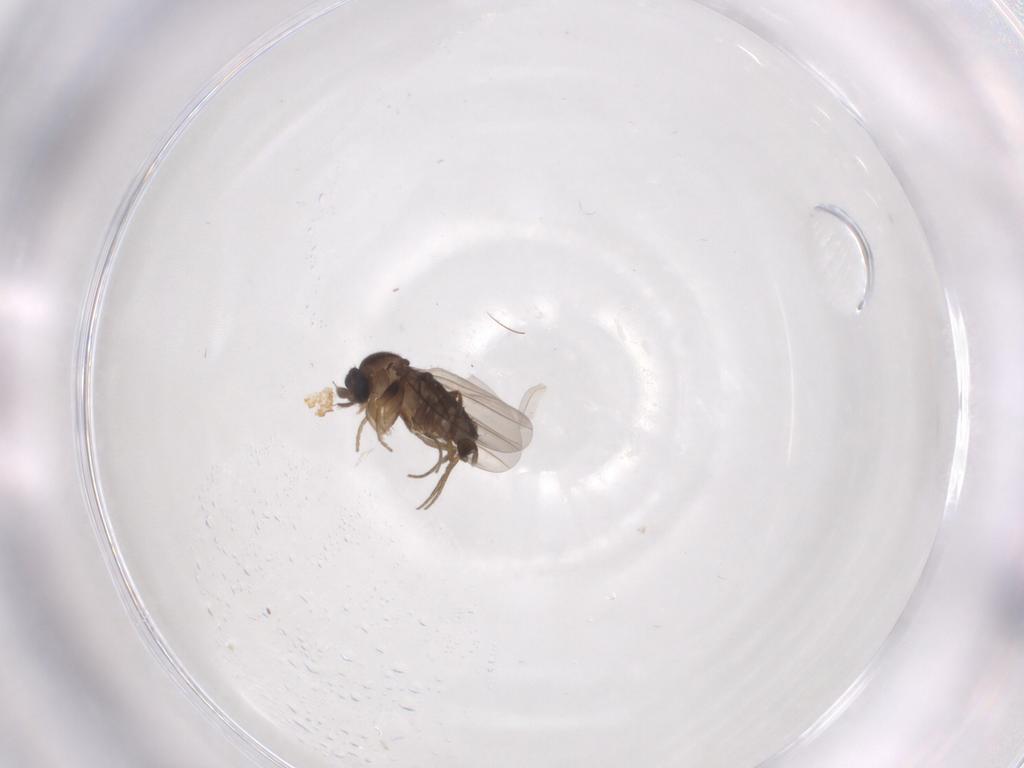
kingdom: Animalia
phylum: Arthropoda
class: Insecta
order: Diptera
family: Phoridae
